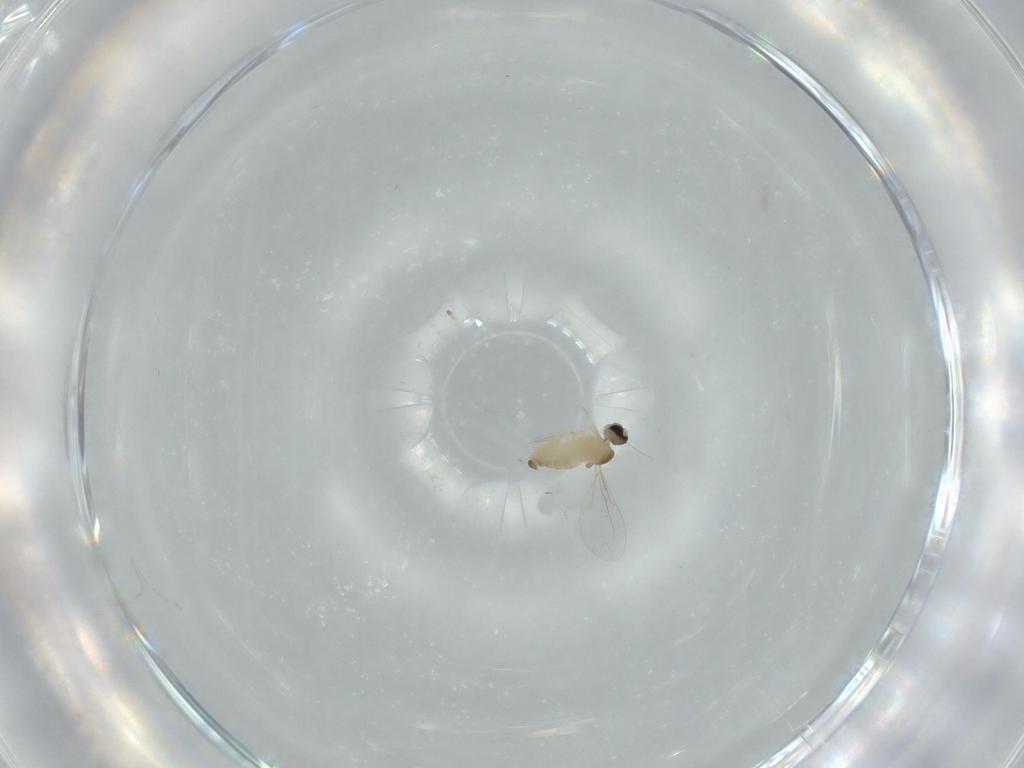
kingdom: Animalia
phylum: Arthropoda
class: Insecta
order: Diptera
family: Cecidomyiidae
